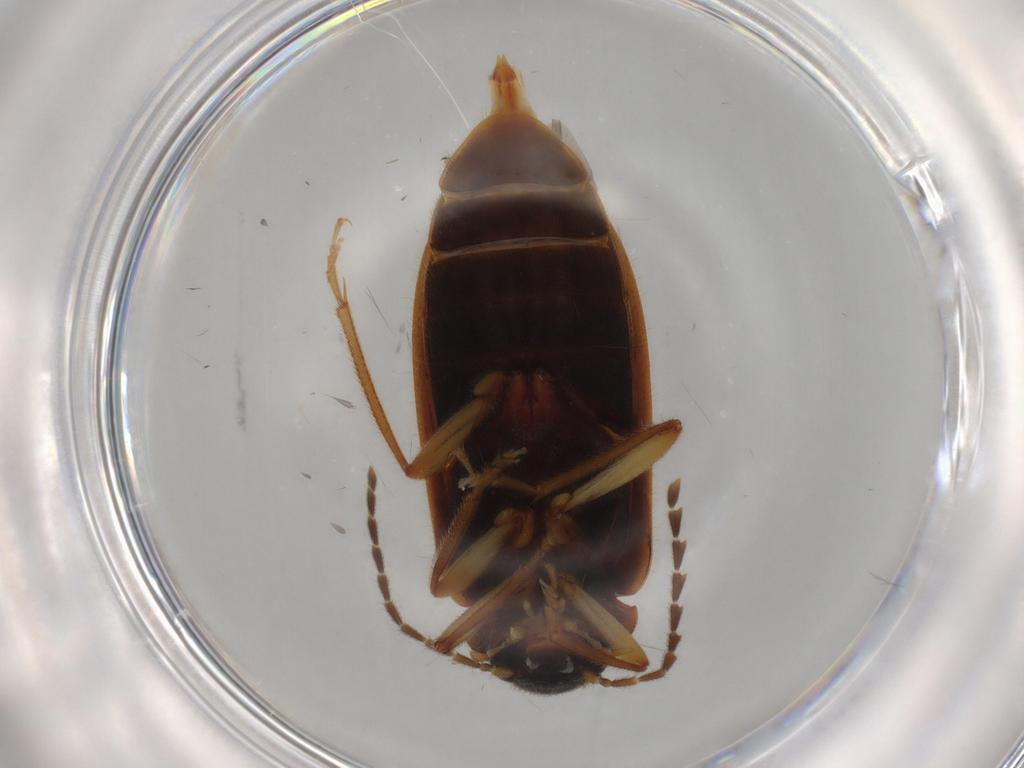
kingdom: Animalia
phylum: Arthropoda
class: Insecta
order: Coleoptera
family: Ptilodactylidae
